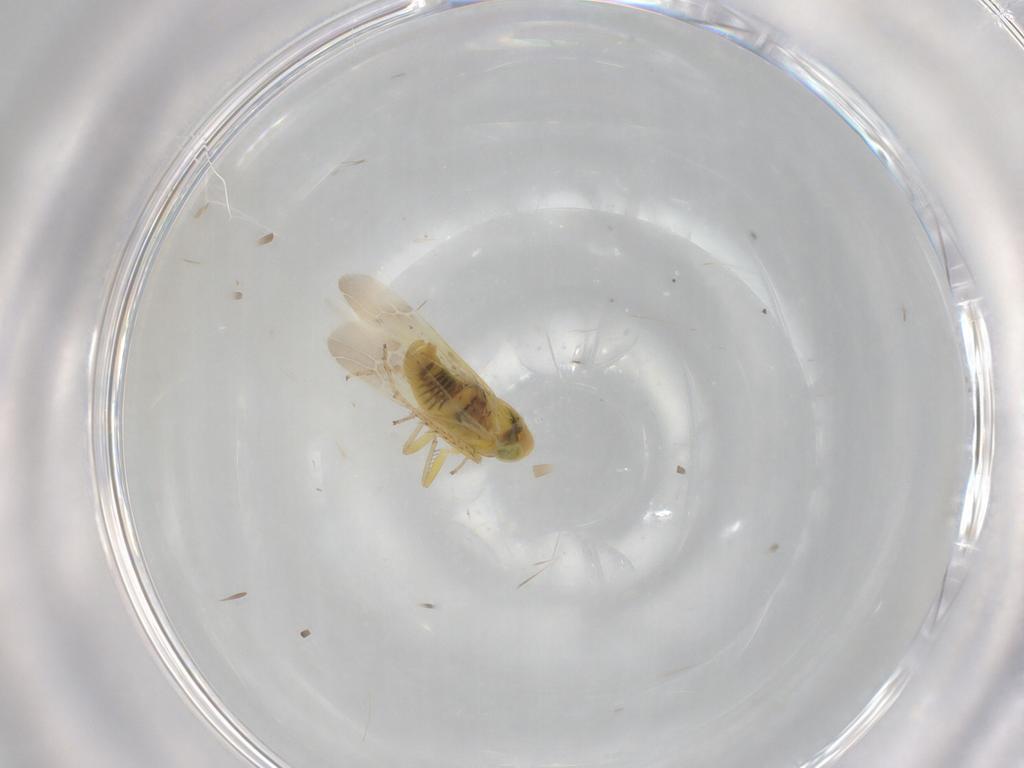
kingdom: Animalia
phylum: Arthropoda
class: Insecta
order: Hemiptera
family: Cicadellidae
